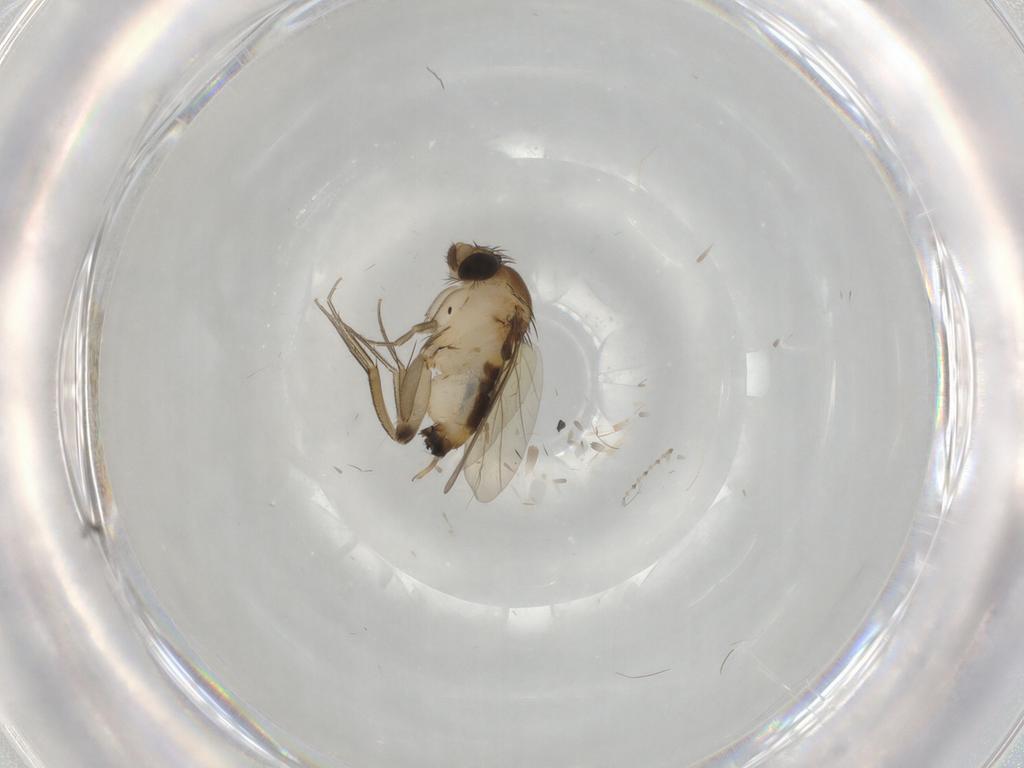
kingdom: Animalia
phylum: Arthropoda
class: Insecta
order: Diptera
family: Phoridae
